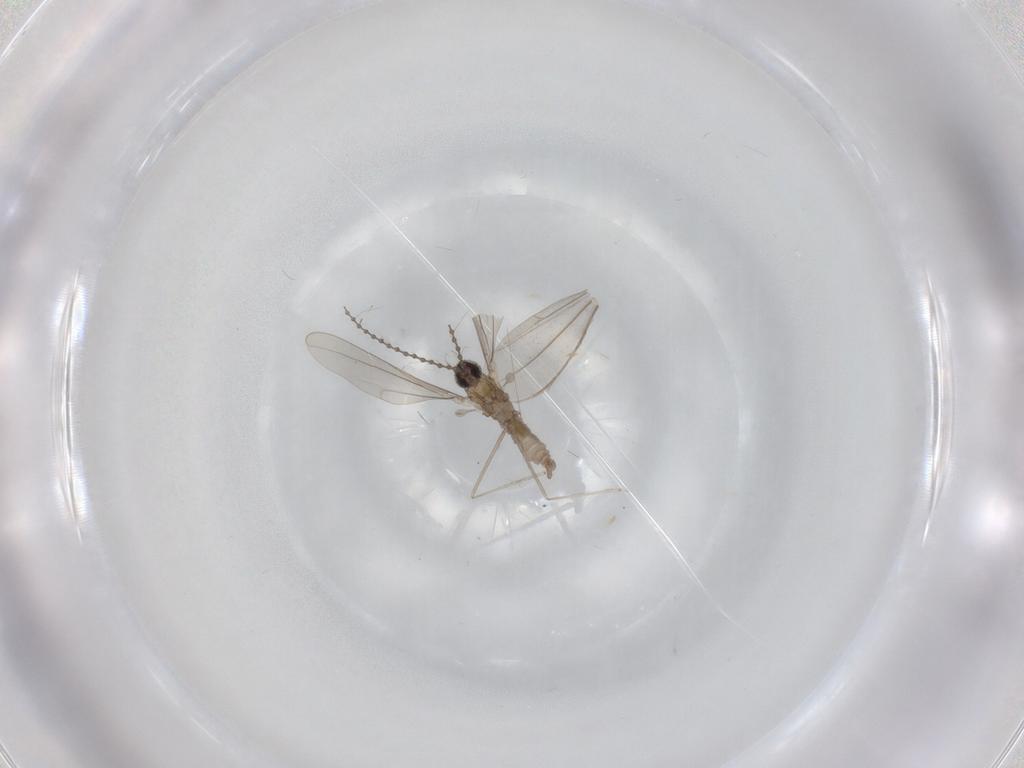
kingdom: Animalia
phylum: Arthropoda
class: Insecta
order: Diptera
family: Cecidomyiidae
